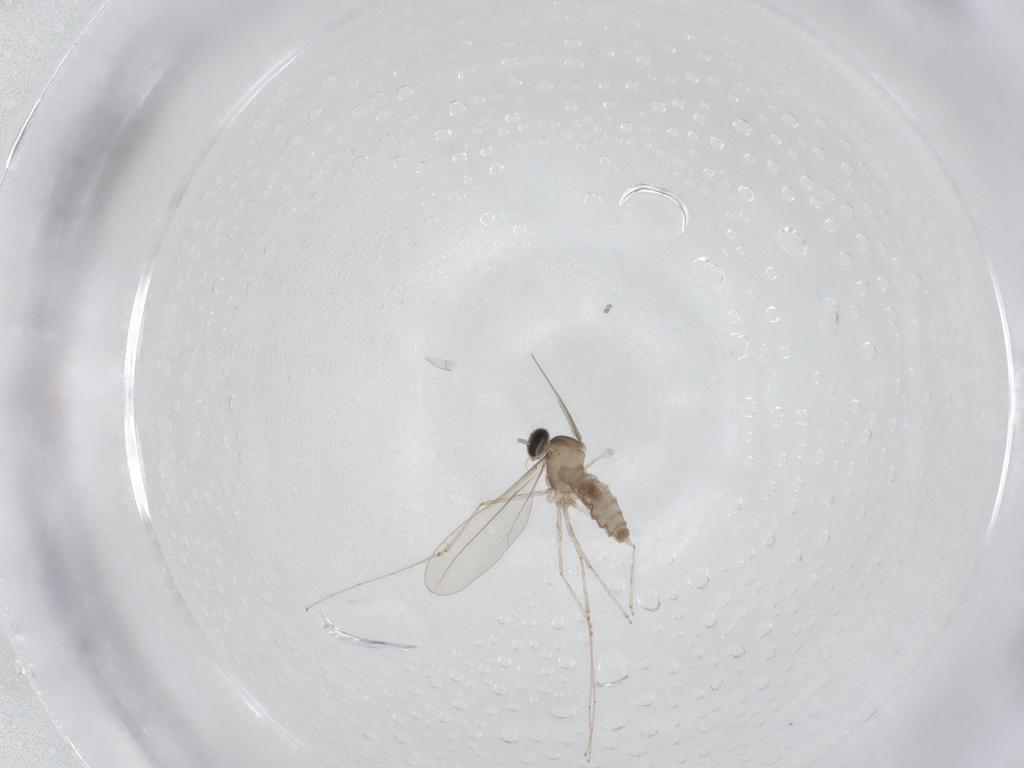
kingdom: Animalia
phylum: Arthropoda
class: Insecta
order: Diptera
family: Cecidomyiidae
